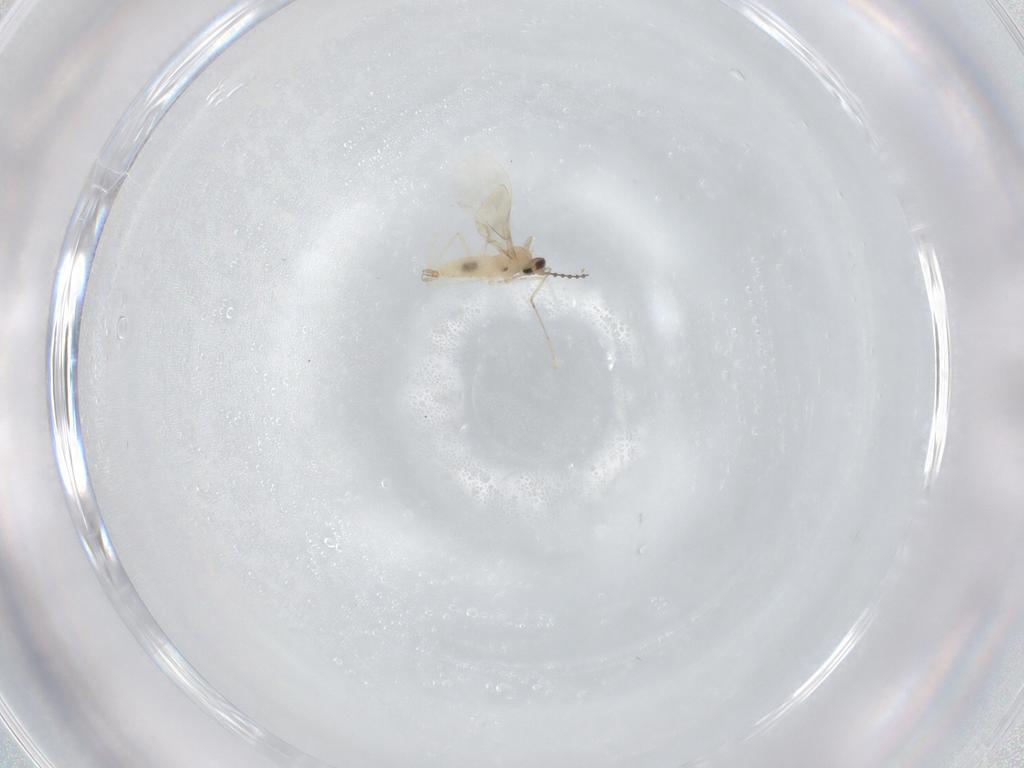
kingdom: Animalia
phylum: Arthropoda
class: Insecta
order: Diptera
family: Cecidomyiidae
